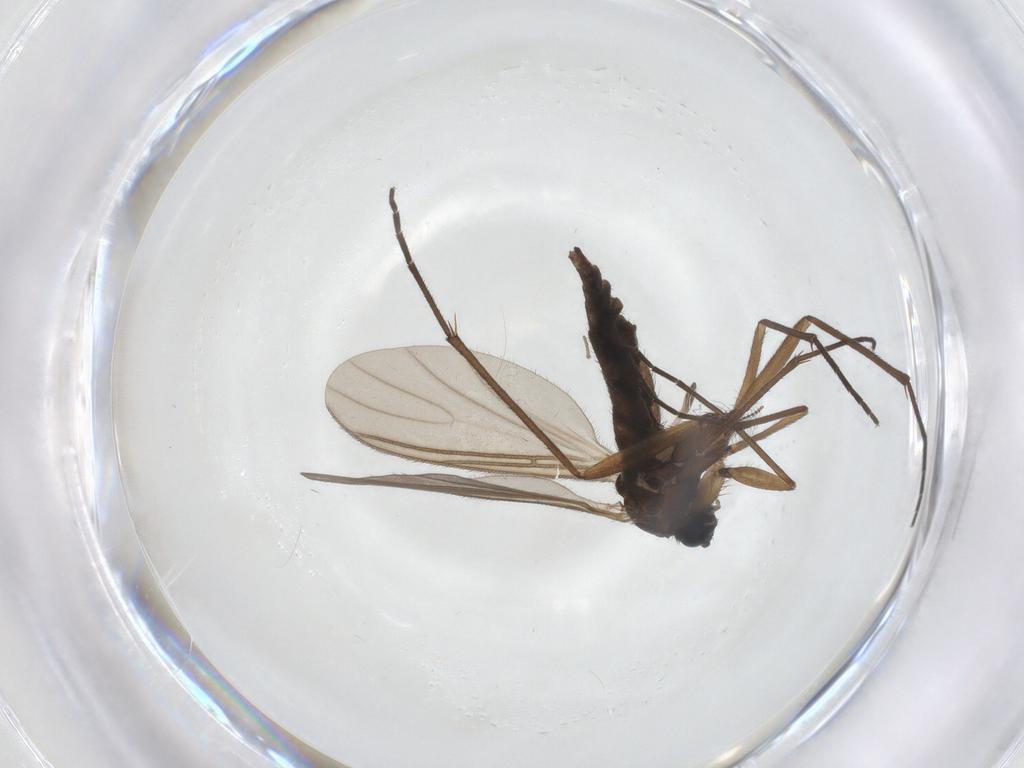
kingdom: Animalia
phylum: Arthropoda
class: Insecta
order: Diptera
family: Sciaridae
